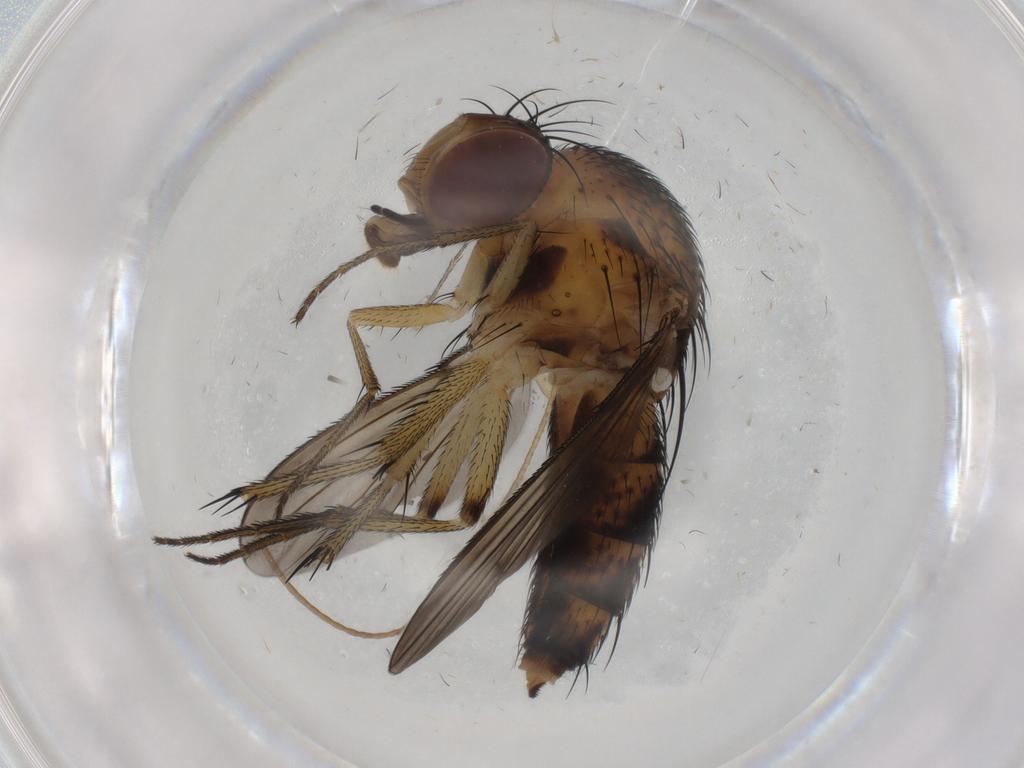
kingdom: Animalia
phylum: Arthropoda
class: Insecta
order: Diptera
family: Curtonotidae
